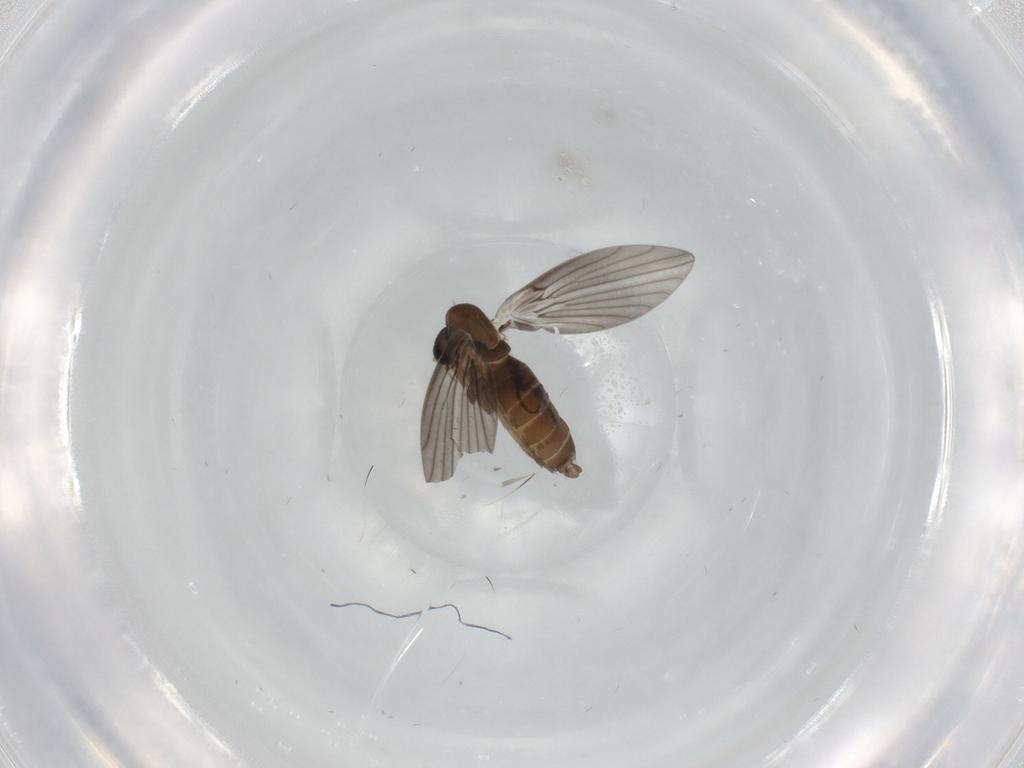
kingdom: Animalia
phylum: Arthropoda
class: Insecta
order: Diptera
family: Psychodidae
